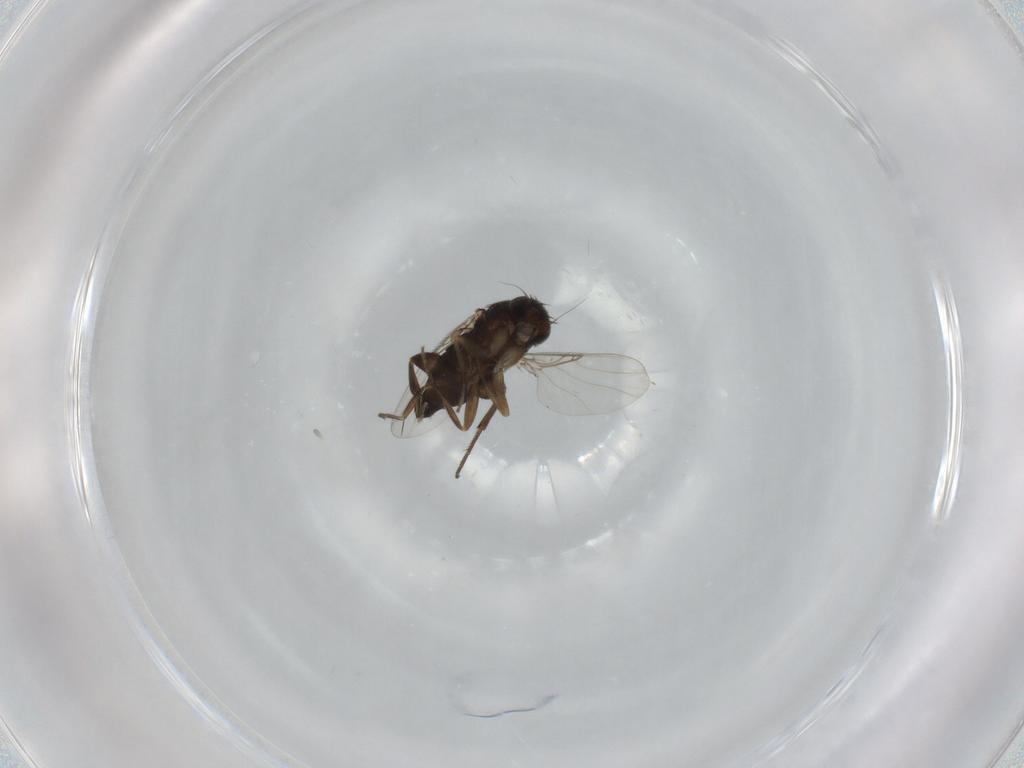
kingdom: Animalia
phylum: Arthropoda
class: Insecta
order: Diptera
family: Phoridae
